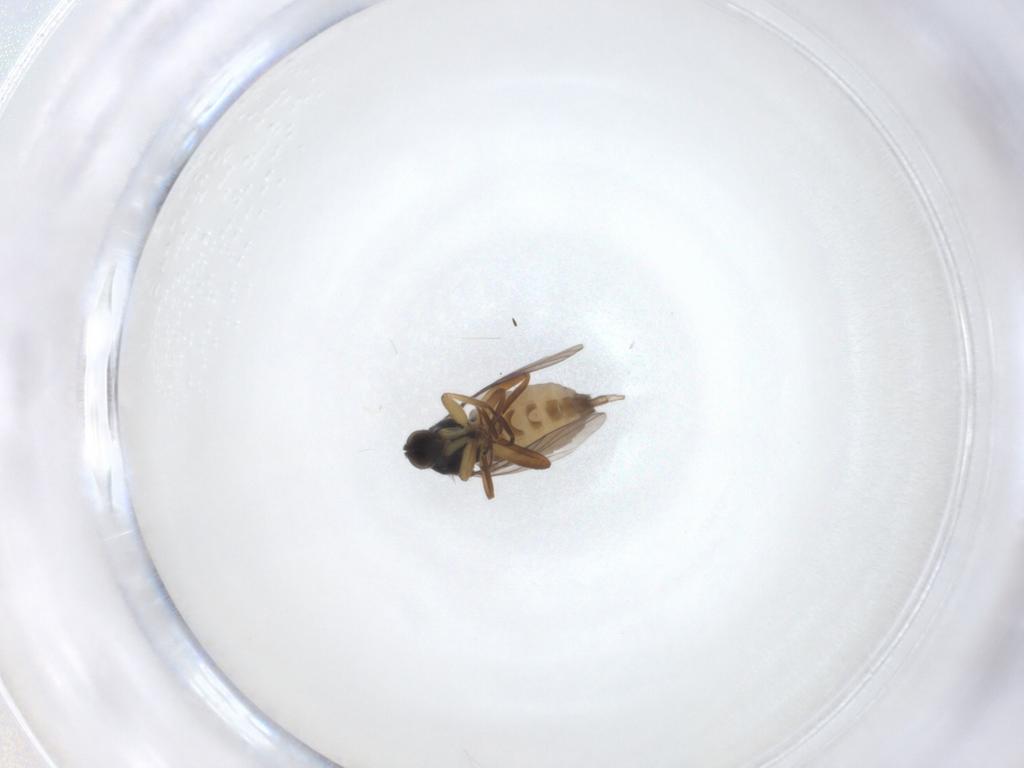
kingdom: Animalia
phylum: Arthropoda
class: Insecta
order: Diptera
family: Hybotidae
